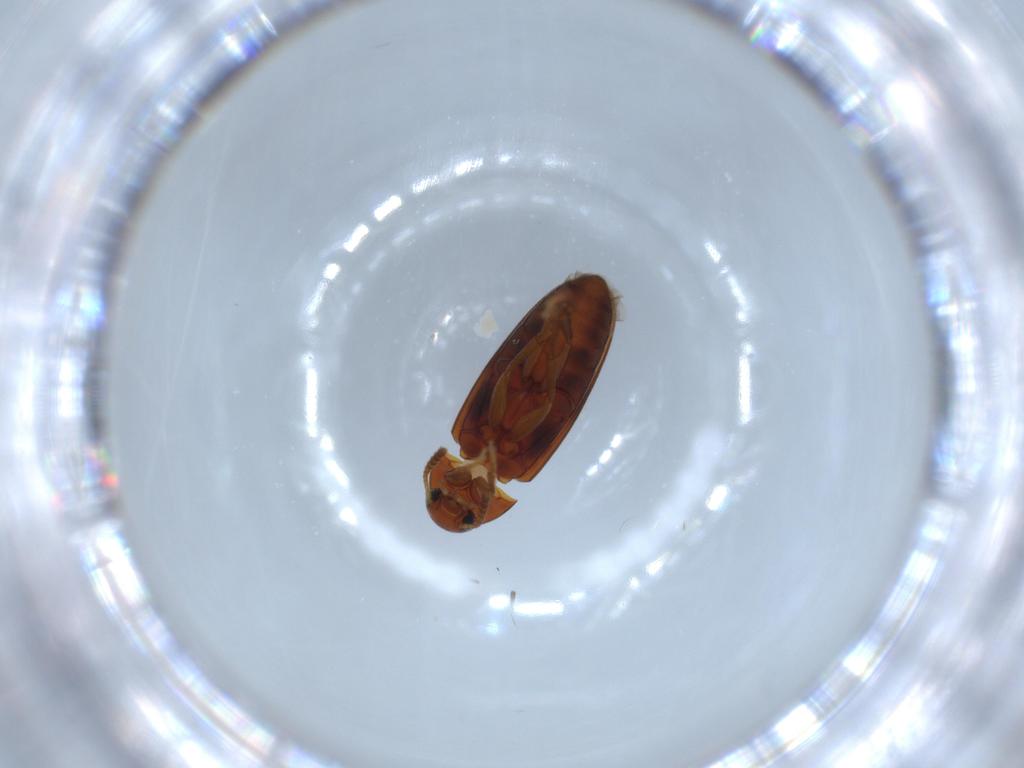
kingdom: Animalia
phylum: Arthropoda
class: Insecta
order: Coleoptera
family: Scraptiidae
